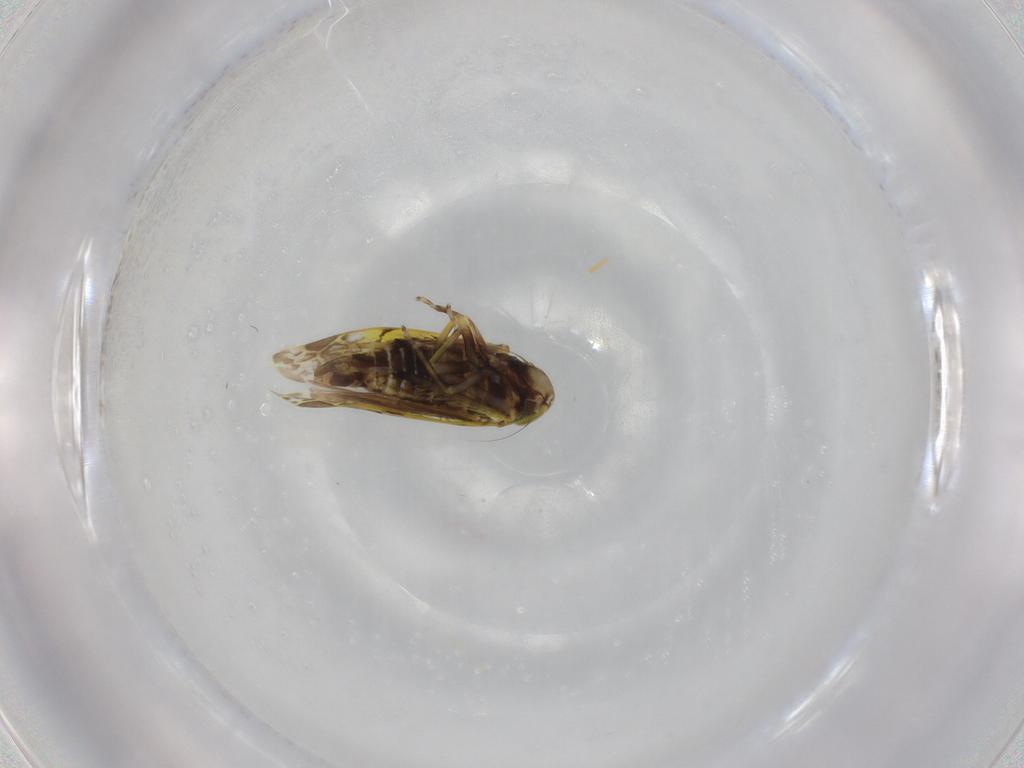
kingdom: Animalia
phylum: Arthropoda
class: Insecta
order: Hemiptera
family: Cicadellidae
